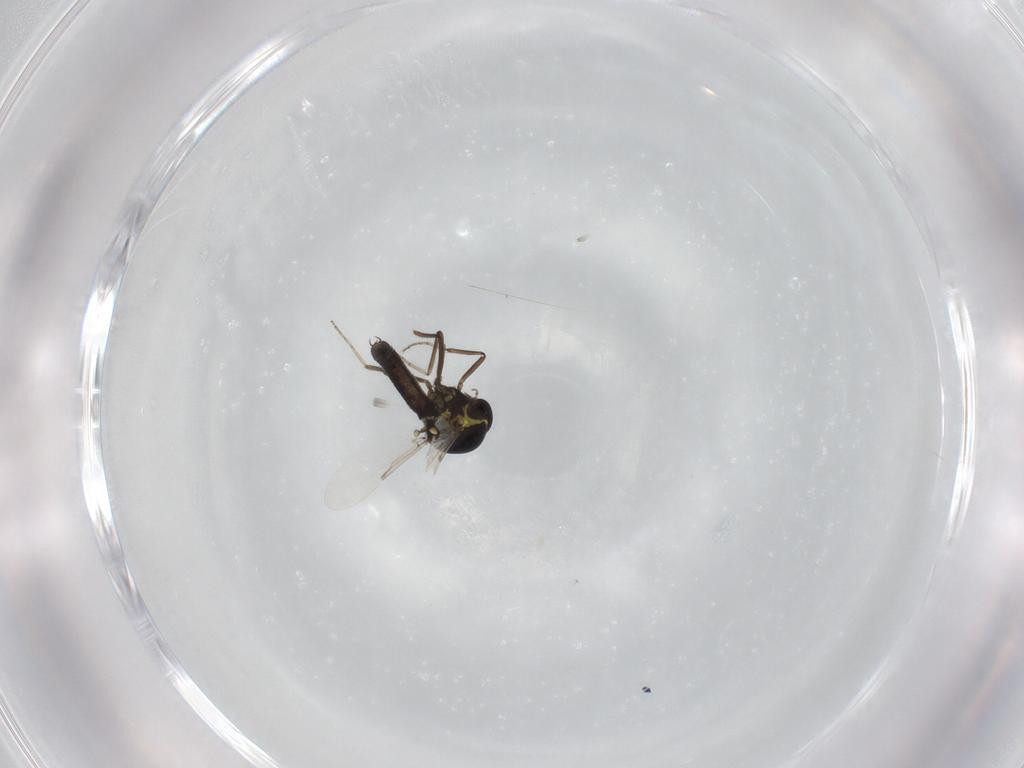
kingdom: Animalia
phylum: Arthropoda
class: Insecta
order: Diptera
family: Ceratopogonidae
